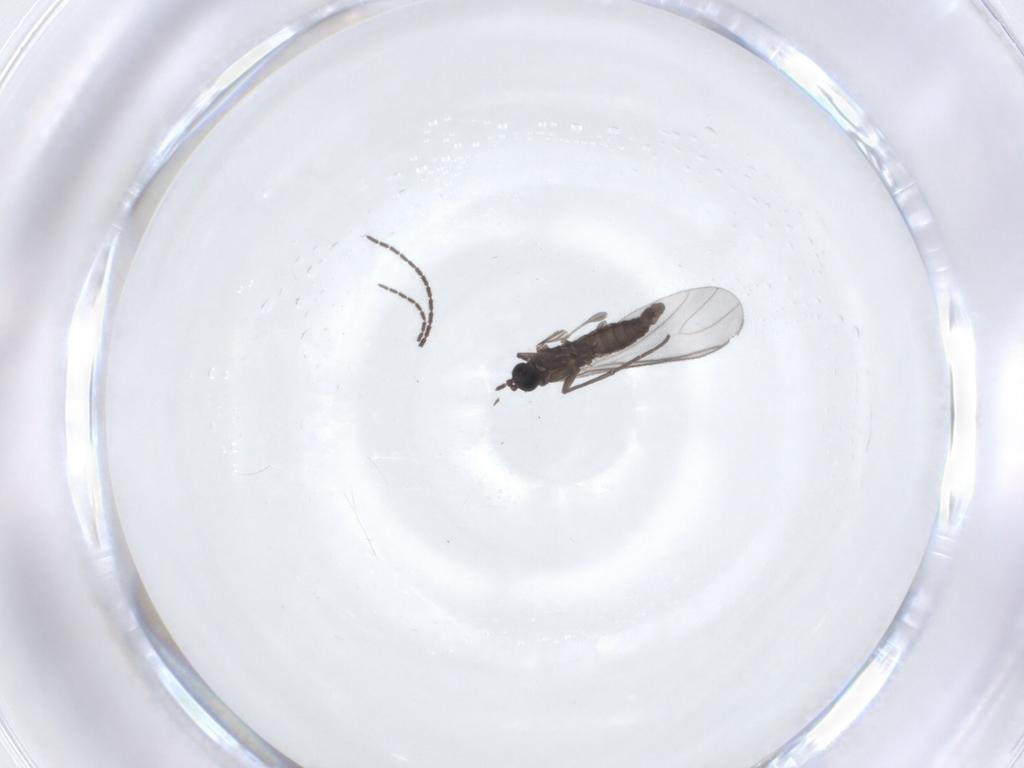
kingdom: Animalia
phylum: Arthropoda
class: Insecta
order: Diptera
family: Sciaridae
